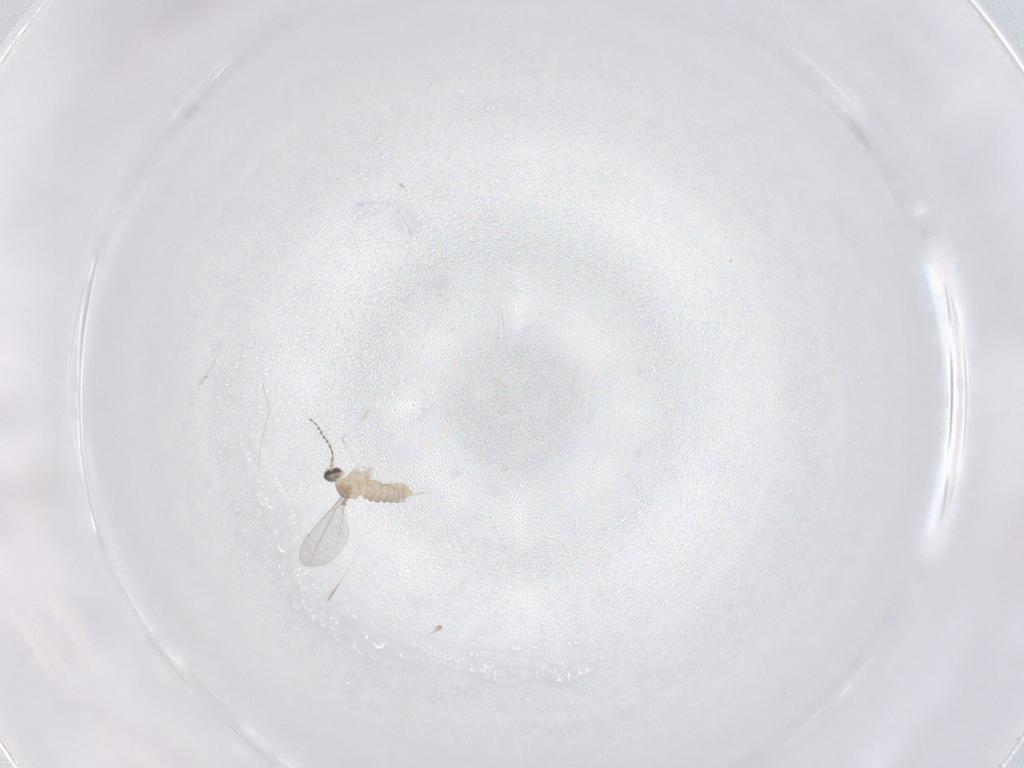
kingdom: Animalia
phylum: Arthropoda
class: Insecta
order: Diptera
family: Cecidomyiidae
